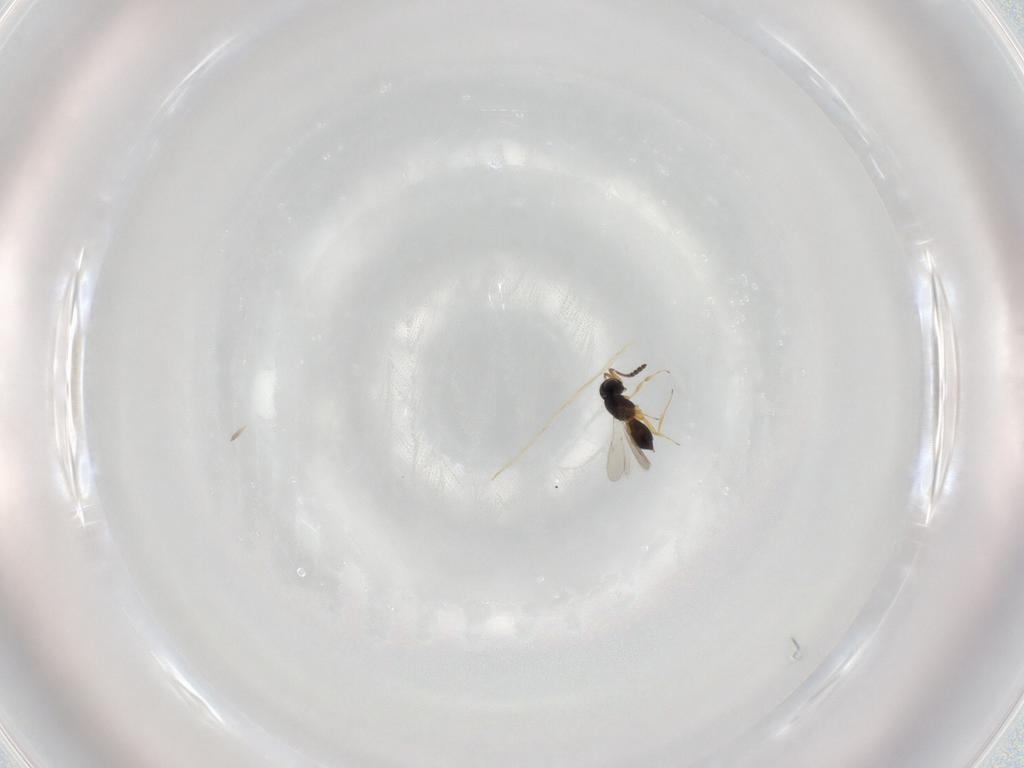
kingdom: Animalia
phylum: Arthropoda
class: Insecta
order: Hymenoptera
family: Scelionidae
